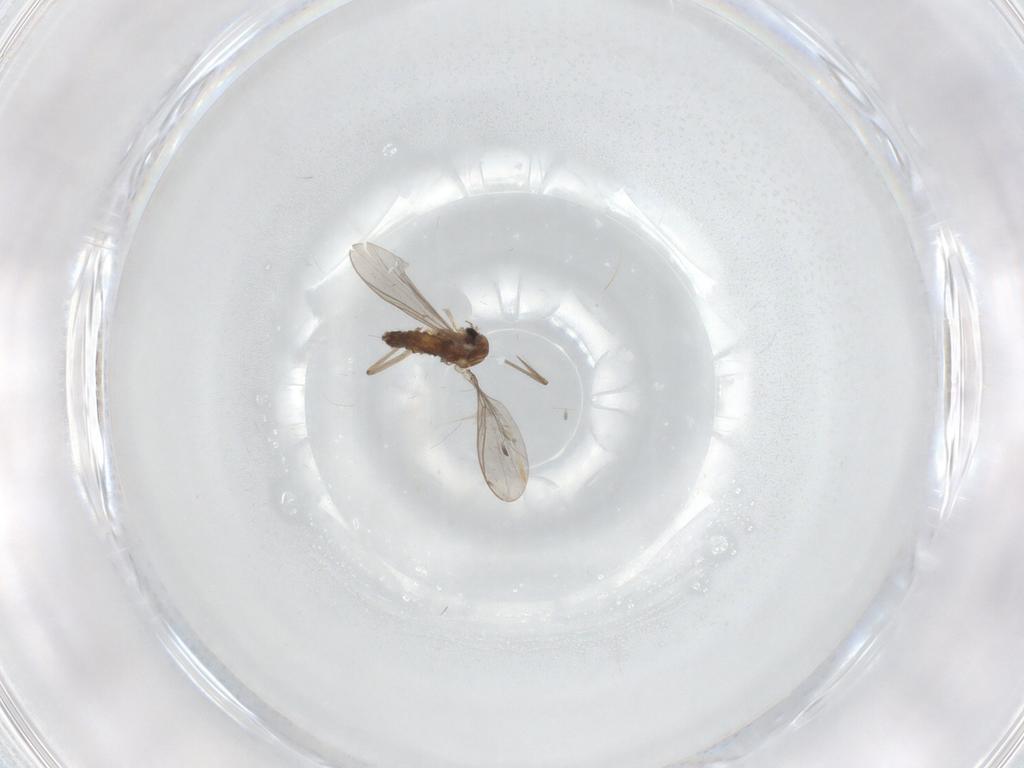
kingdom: Animalia
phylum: Arthropoda
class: Insecta
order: Diptera
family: Chironomidae
